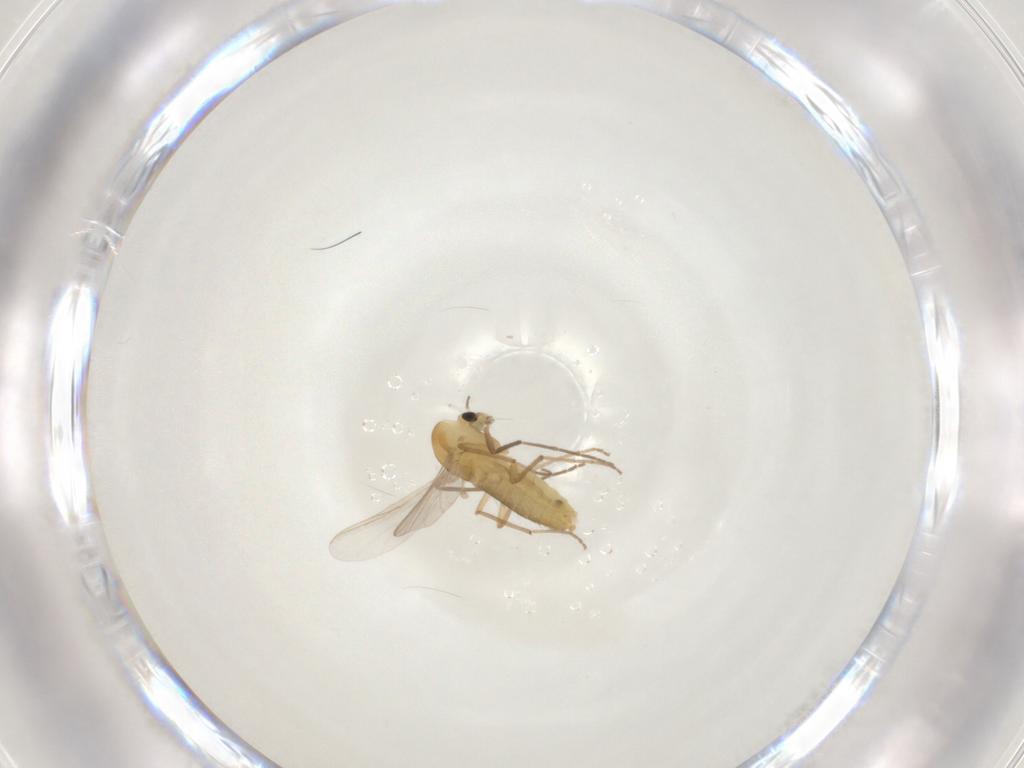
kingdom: Animalia
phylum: Arthropoda
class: Insecta
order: Diptera
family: Chironomidae
